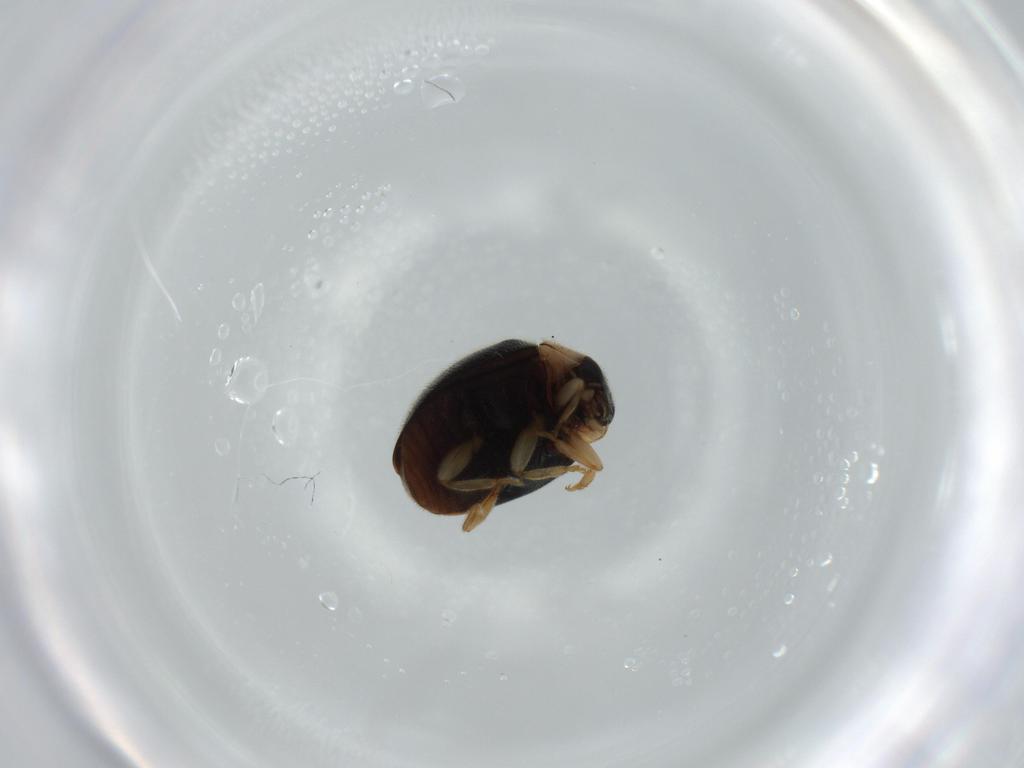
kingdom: Animalia
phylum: Arthropoda
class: Insecta
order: Coleoptera
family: Coccinellidae
